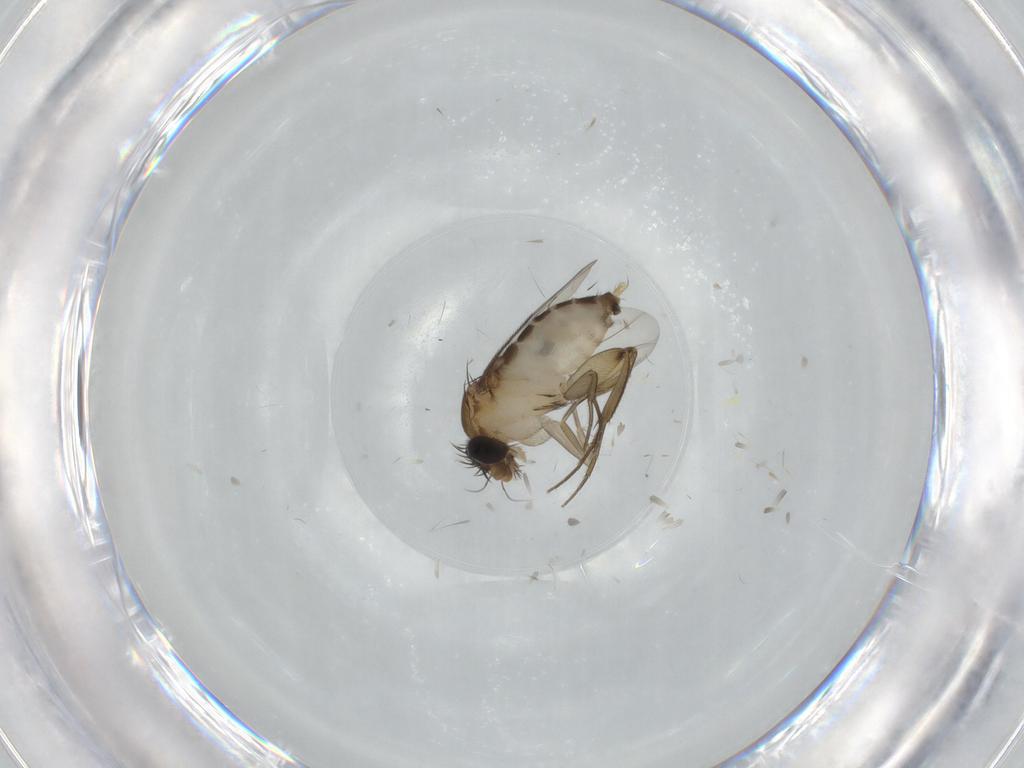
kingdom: Animalia
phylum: Arthropoda
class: Insecta
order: Diptera
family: Phoridae
